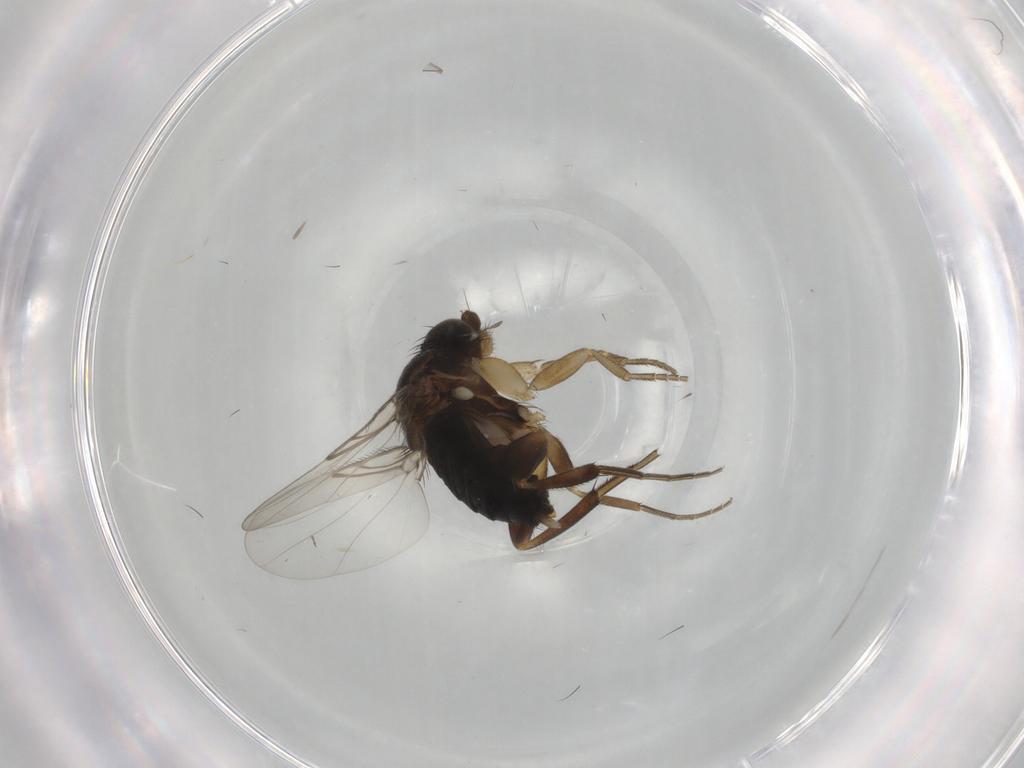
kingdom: Animalia
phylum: Arthropoda
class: Insecta
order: Diptera
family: Phoridae
